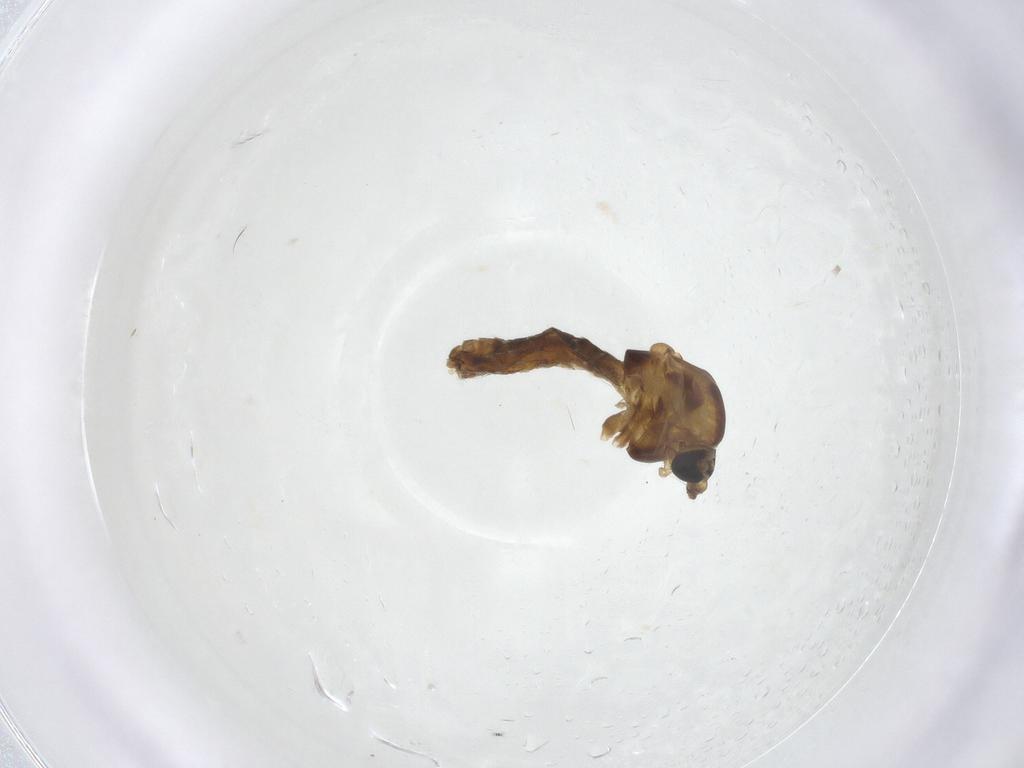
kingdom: Animalia
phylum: Arthropoda
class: Insecta
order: Diptera
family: Chironomidae
